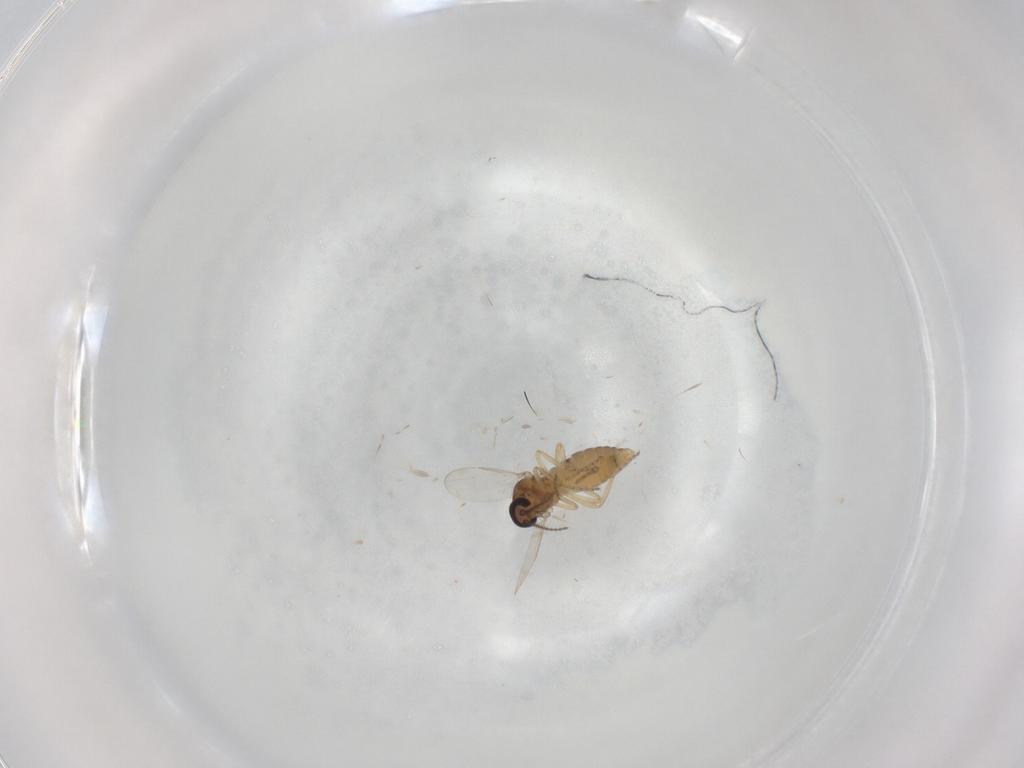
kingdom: Animalia
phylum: Arthropoda
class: Insecta
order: Diptera
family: Ceratopogonidae
